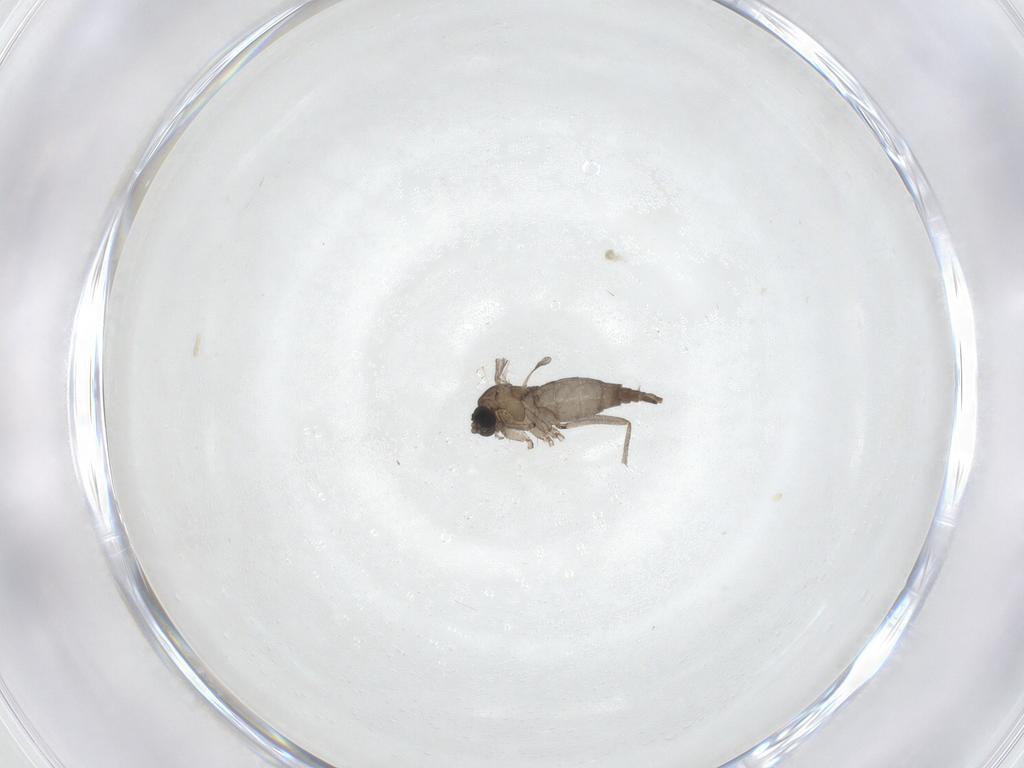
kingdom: Animalia
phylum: Arthropoda
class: Insecta
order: Diptera
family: Sciaridae
